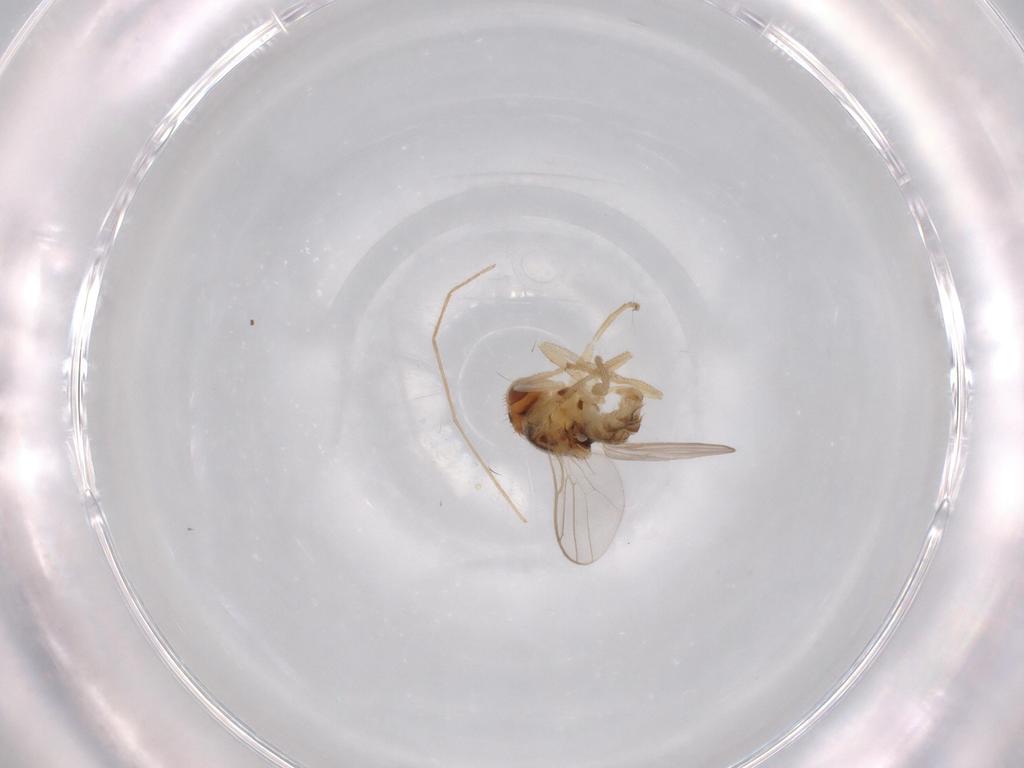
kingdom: Animalia
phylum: Arthropoda
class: Insecta
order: Diptera
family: Chloropidae
